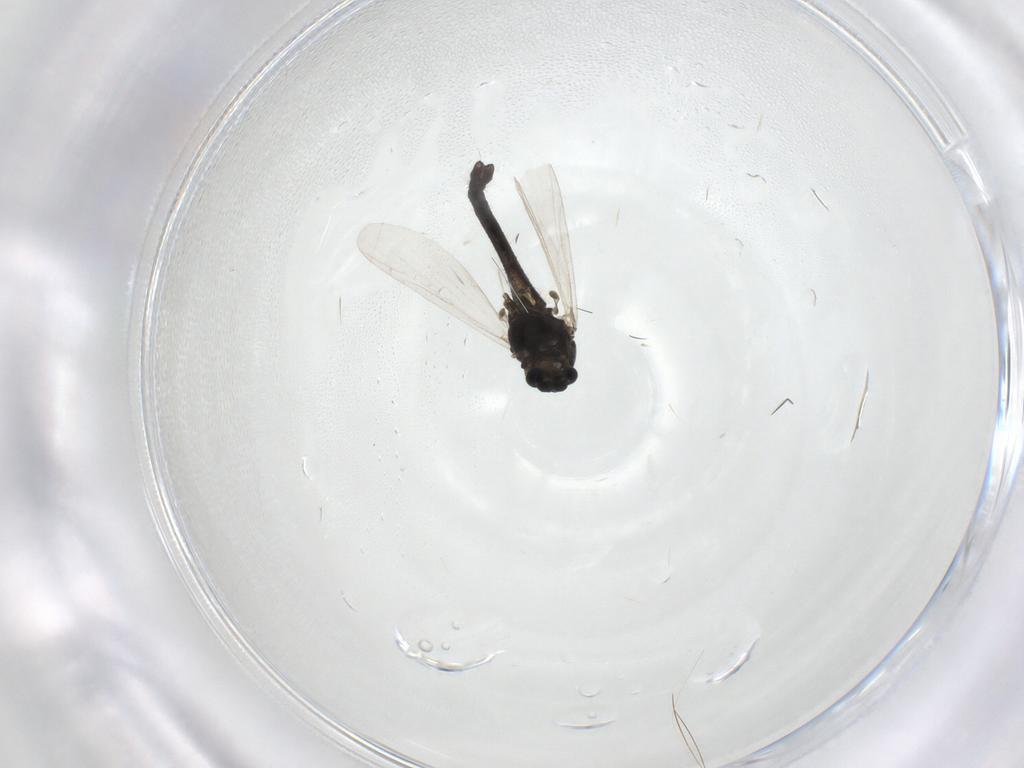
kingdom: Animalia
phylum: Arthropoda
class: Insecta
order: Diptera
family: Chironomidae
